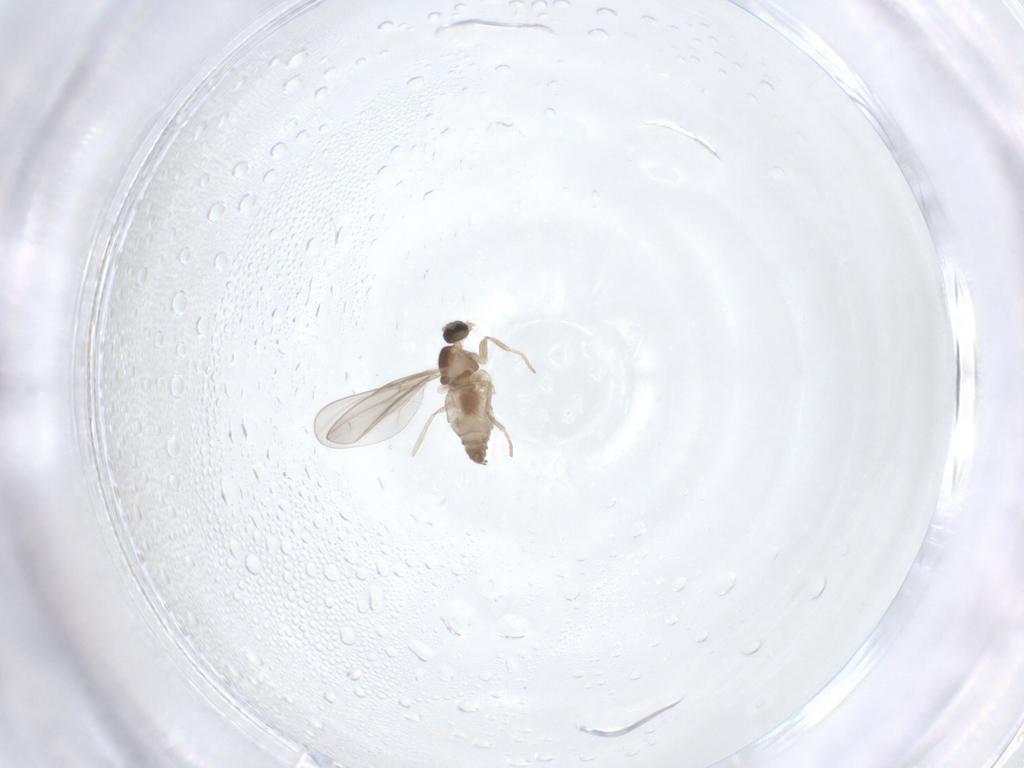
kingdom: Animalia
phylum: Arthropoda
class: Insecta
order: Diptera
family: Cecidomyiidae
